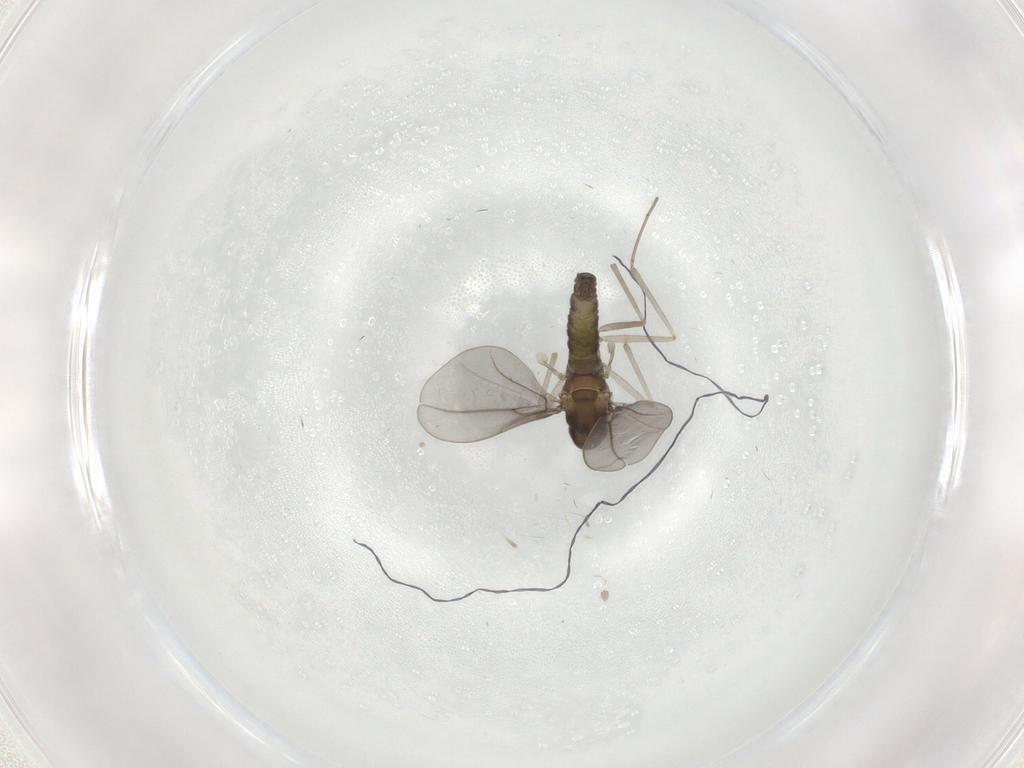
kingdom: Animalia
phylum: Arthropoda
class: Insecta
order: Diptera
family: Cecidomyiidae
